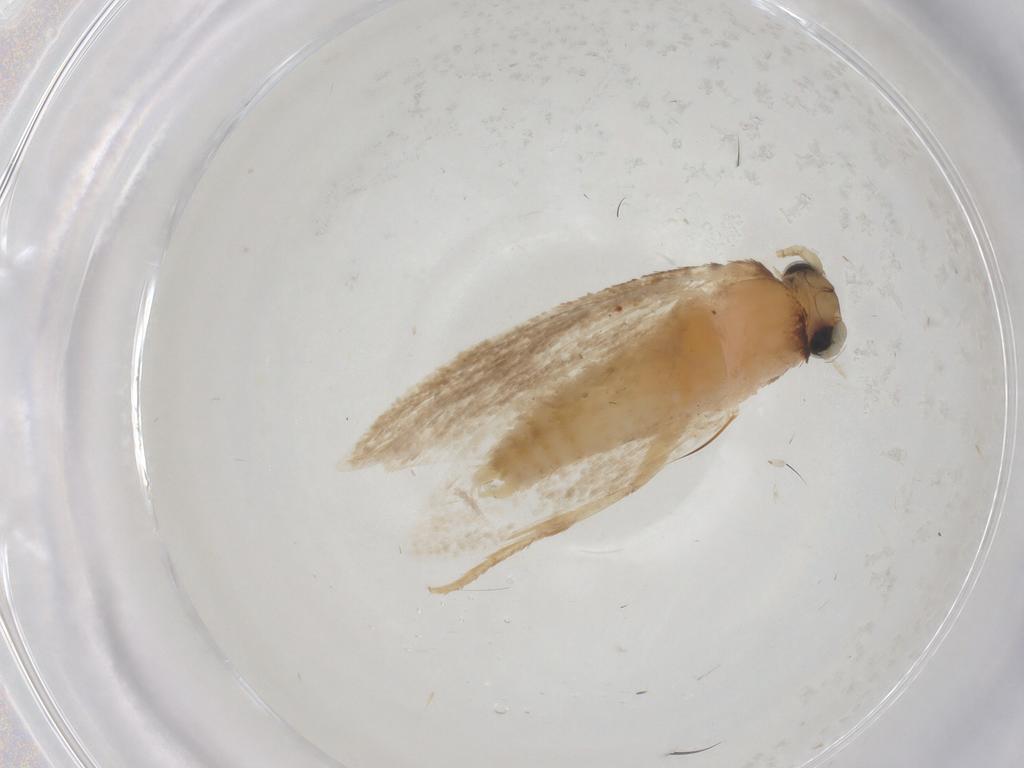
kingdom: Animalia
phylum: Arthropoda
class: Insecta
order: Lepidoptera
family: Tineidae
